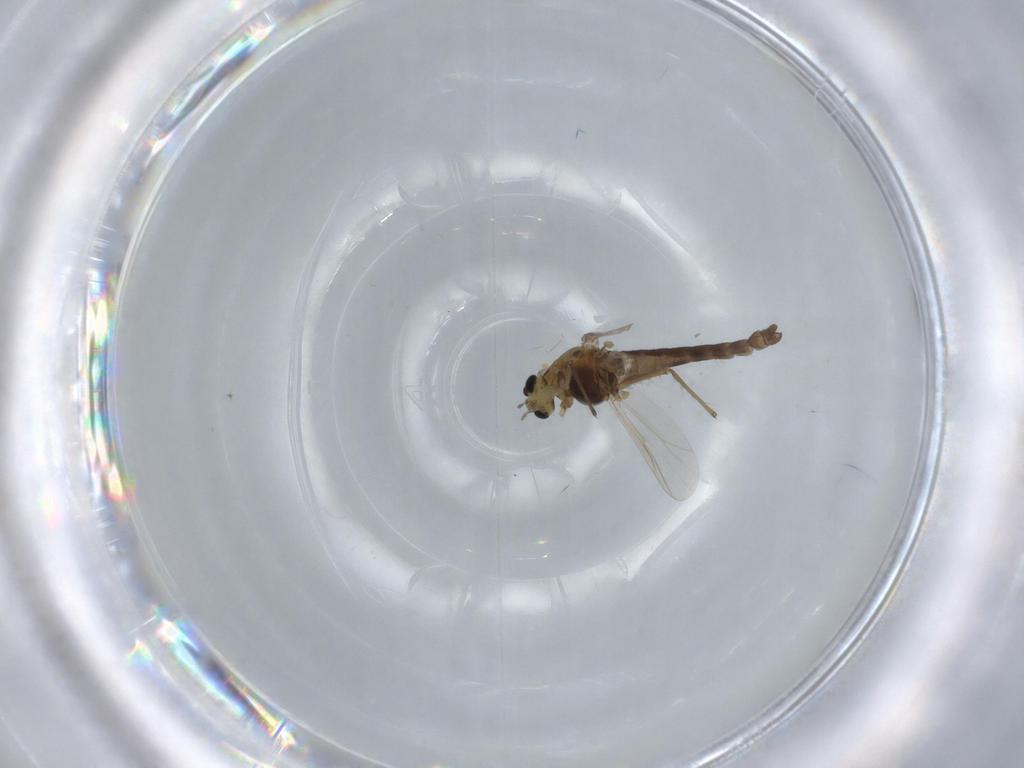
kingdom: Animalia
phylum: Arthropoda
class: Insecta
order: Diptera
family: Chironomidae
